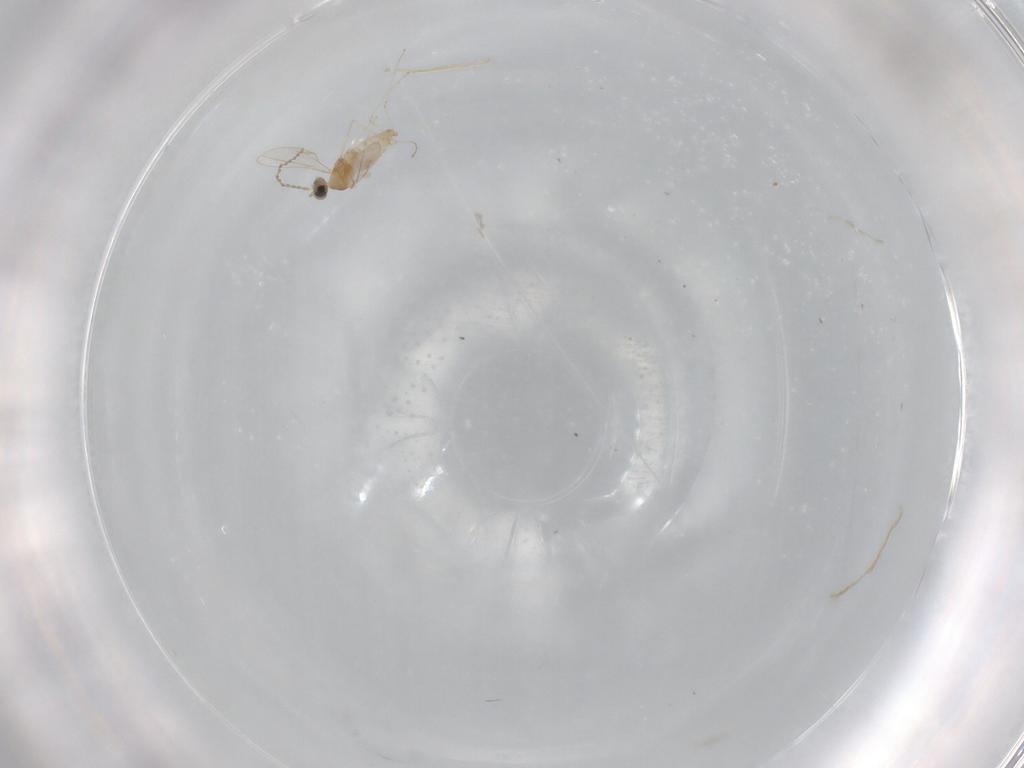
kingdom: Animalia
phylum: Arthropoda
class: Insecta
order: Diptera
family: Cecidomyiidae
